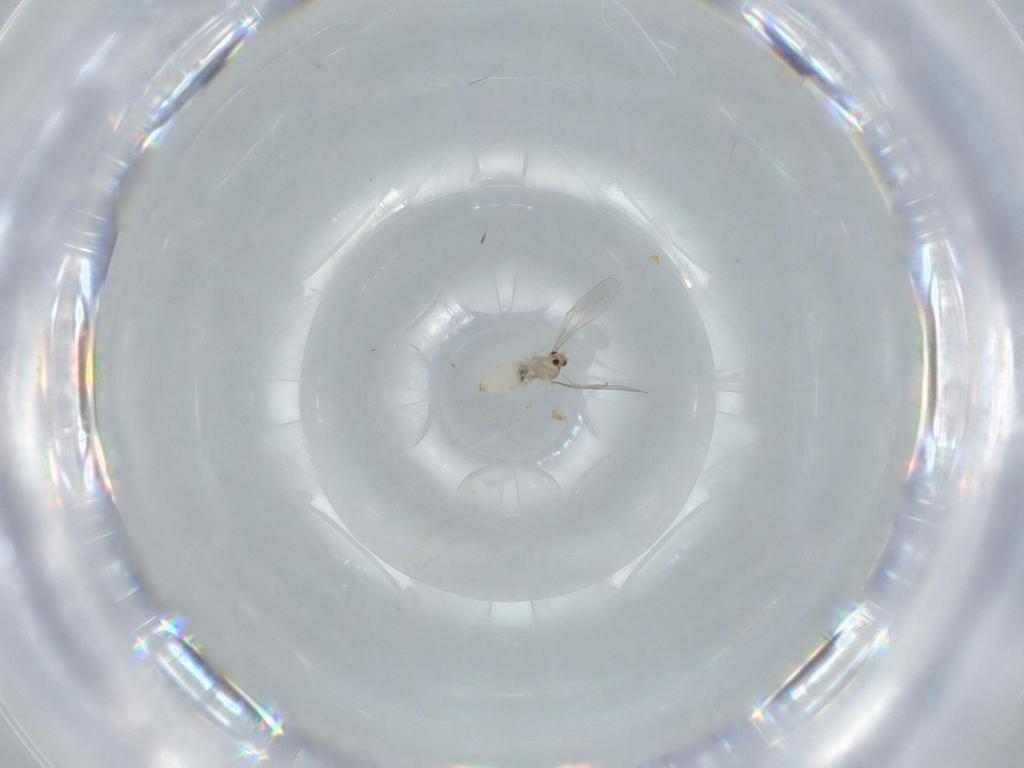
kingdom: Animalia
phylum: Arthropoda
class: Insecta
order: Diptera
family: Cecidomyiidae
